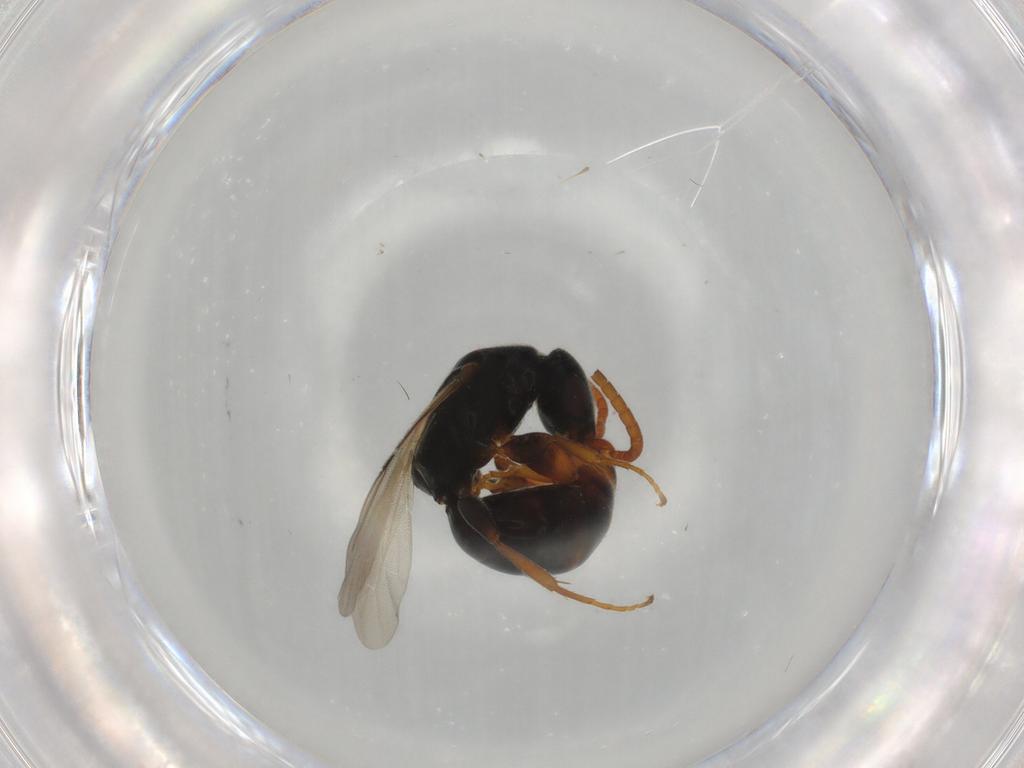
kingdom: Animalia
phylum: Arthropoda
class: Insecta
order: Hymenoptera
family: Bethylidae
